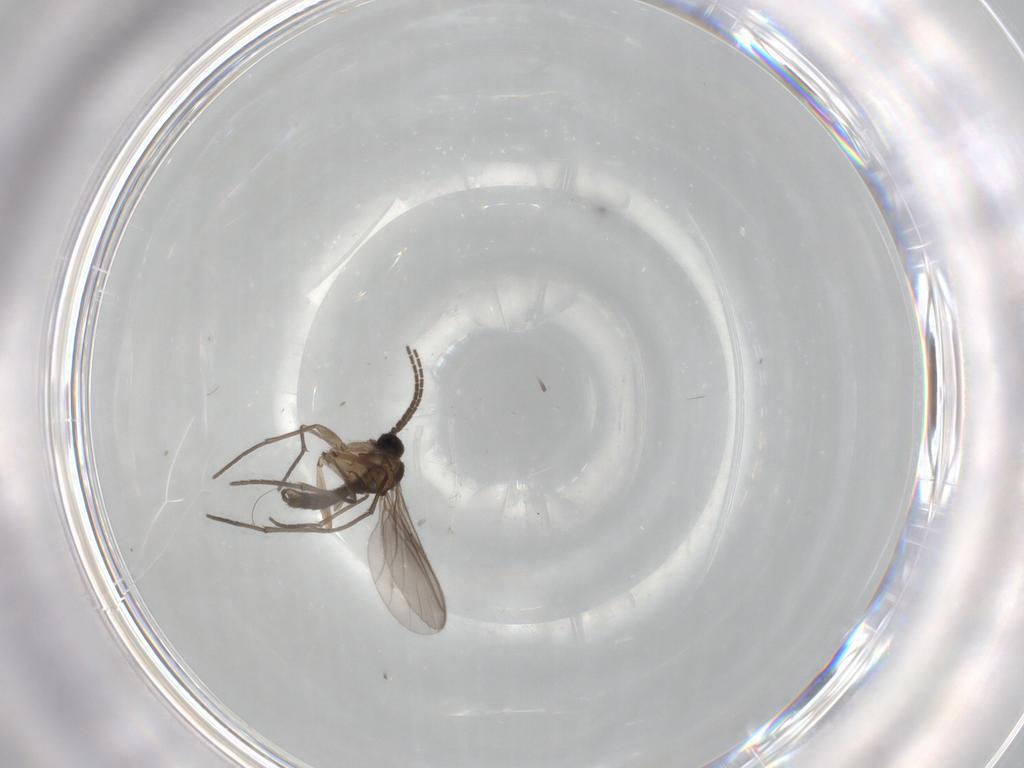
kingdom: Animalia
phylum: Arthropoda
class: Insecta
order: Diptera
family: Sciaridae
